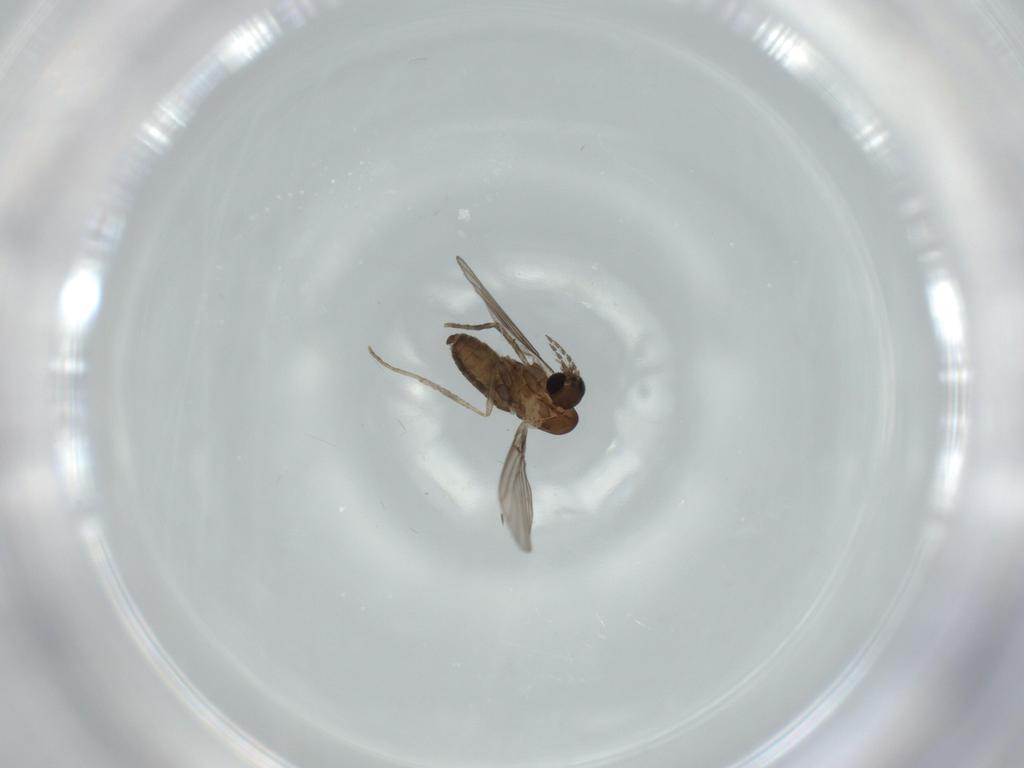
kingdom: Animalia
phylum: Arthropoda
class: Insecta
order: Diptera
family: Psychodidae
